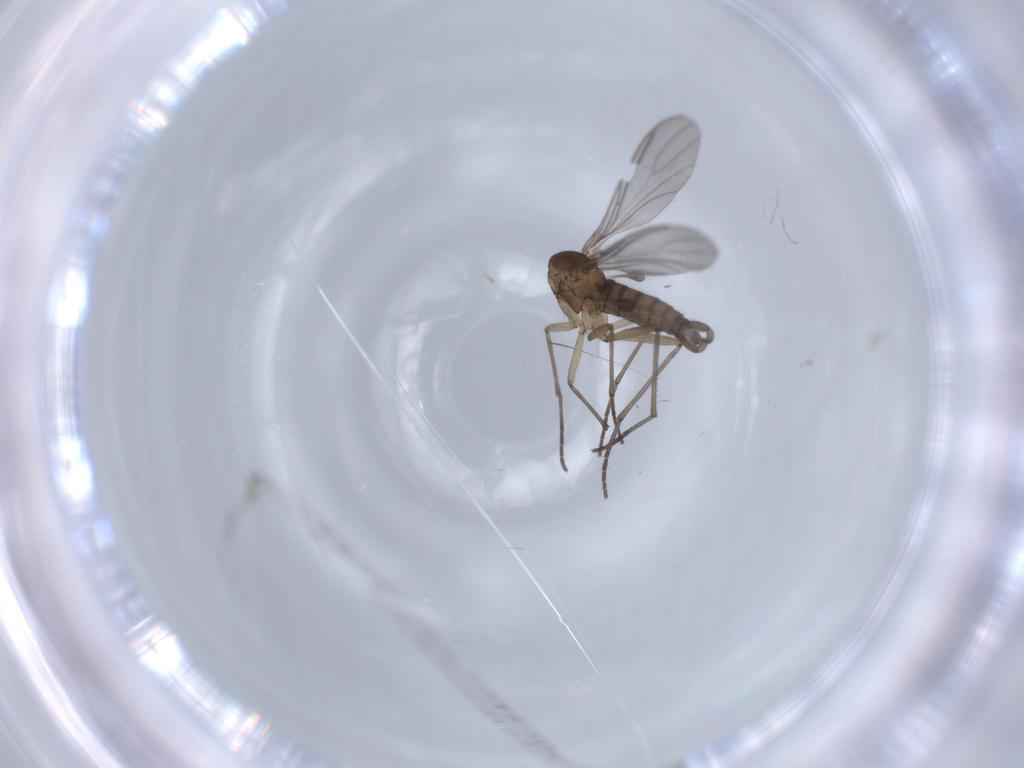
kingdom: Animalia
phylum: Arthropoda
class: Insecta
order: Diptera
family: Sciaridae
